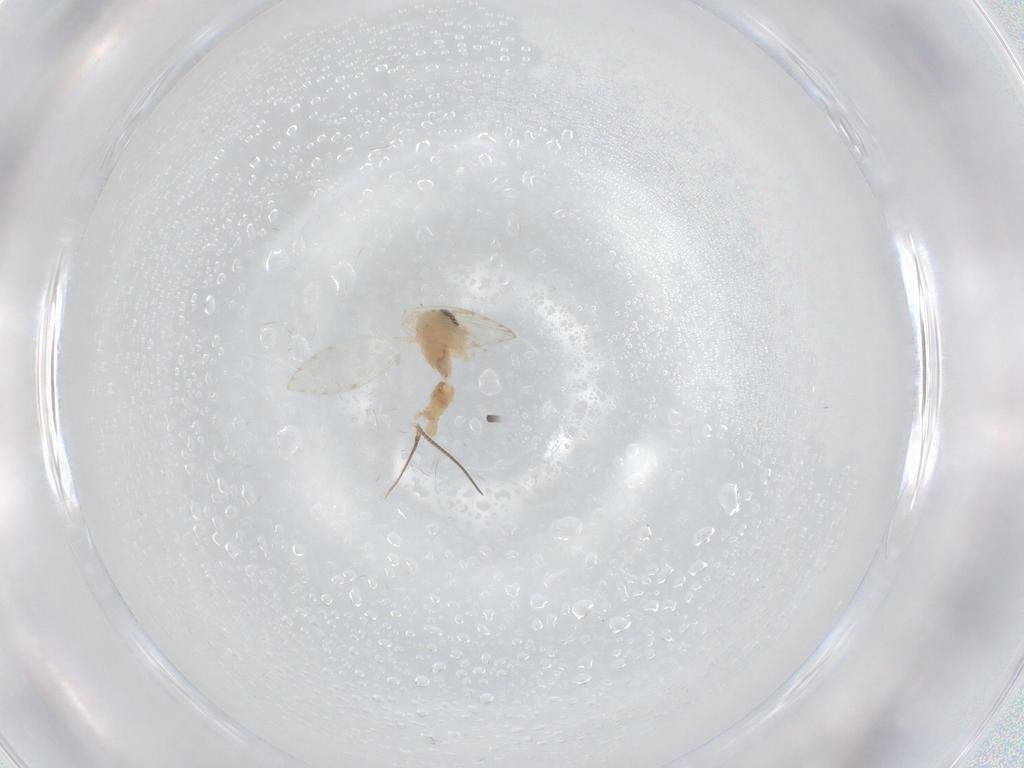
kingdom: Animalia
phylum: Arthropoda
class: Insecta
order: Diptera
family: Psychodidae
